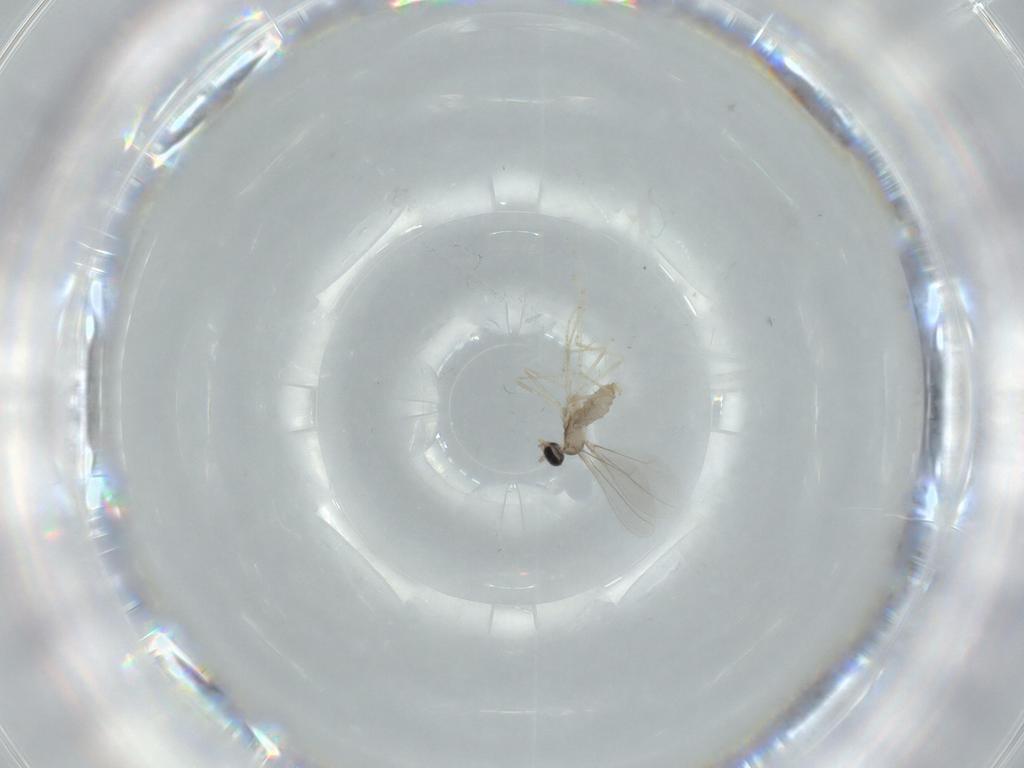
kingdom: Animalia
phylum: Arthropoda
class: Insecta
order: Diptera
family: Cecidomyiidae
